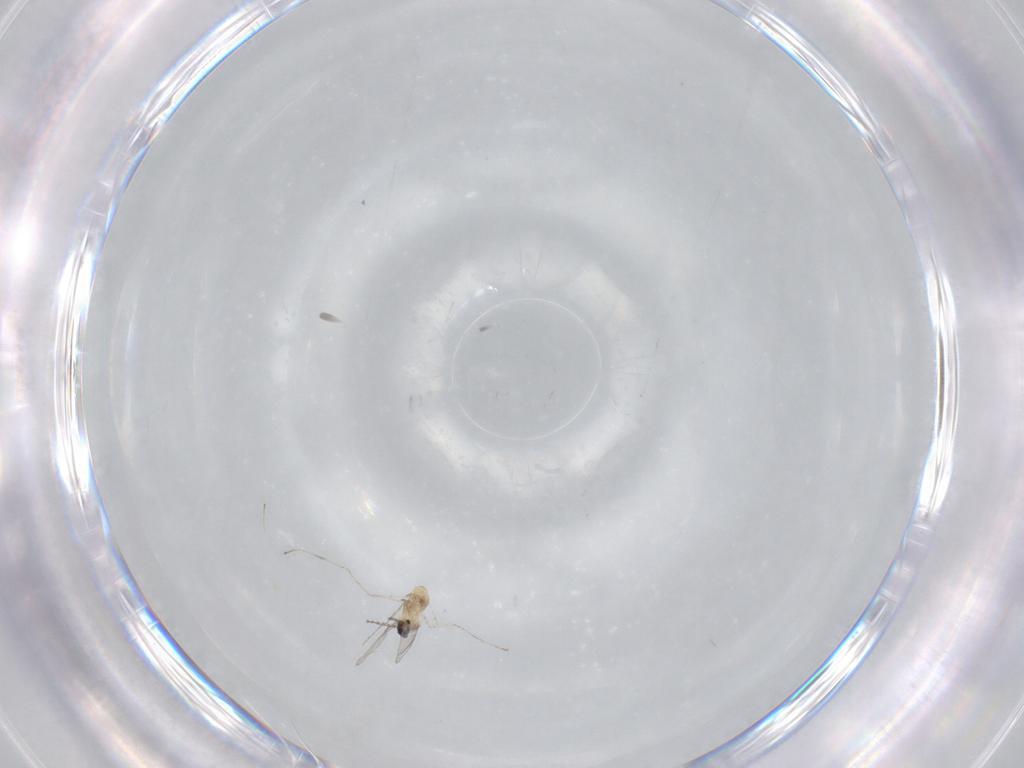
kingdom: Animalia
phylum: Arthropoda
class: Insecta
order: Diptera
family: Cecidomyiidae
